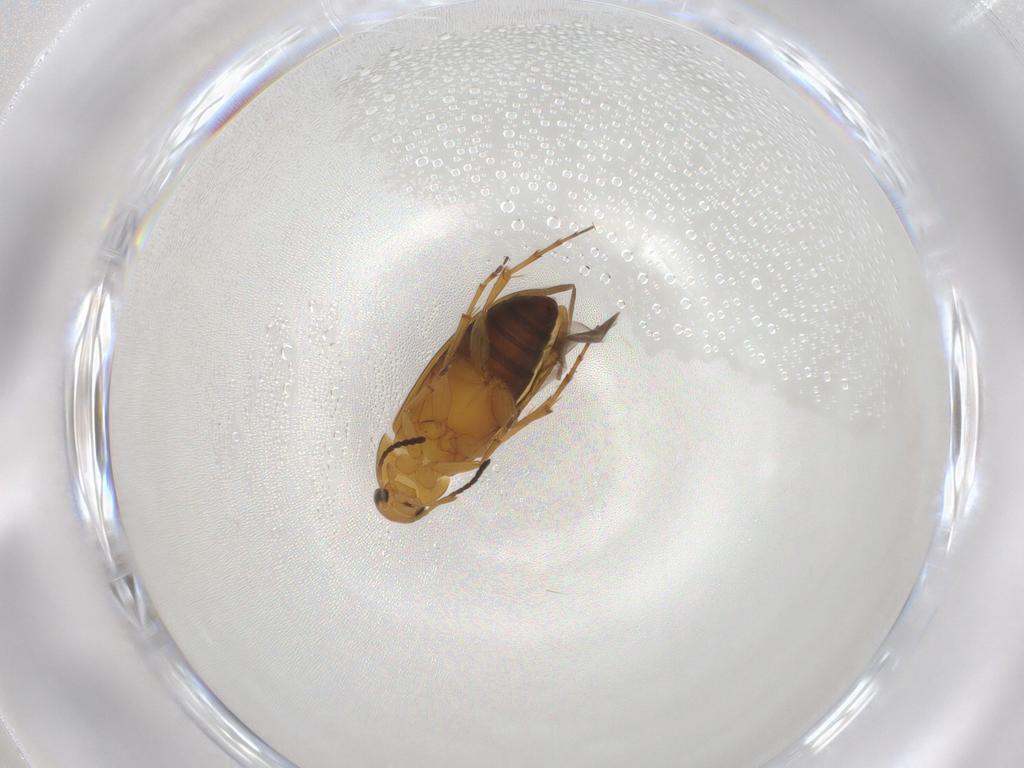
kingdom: Animalia
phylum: Arthropoda
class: Insecta
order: Coleoptera
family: Scraptiidae
